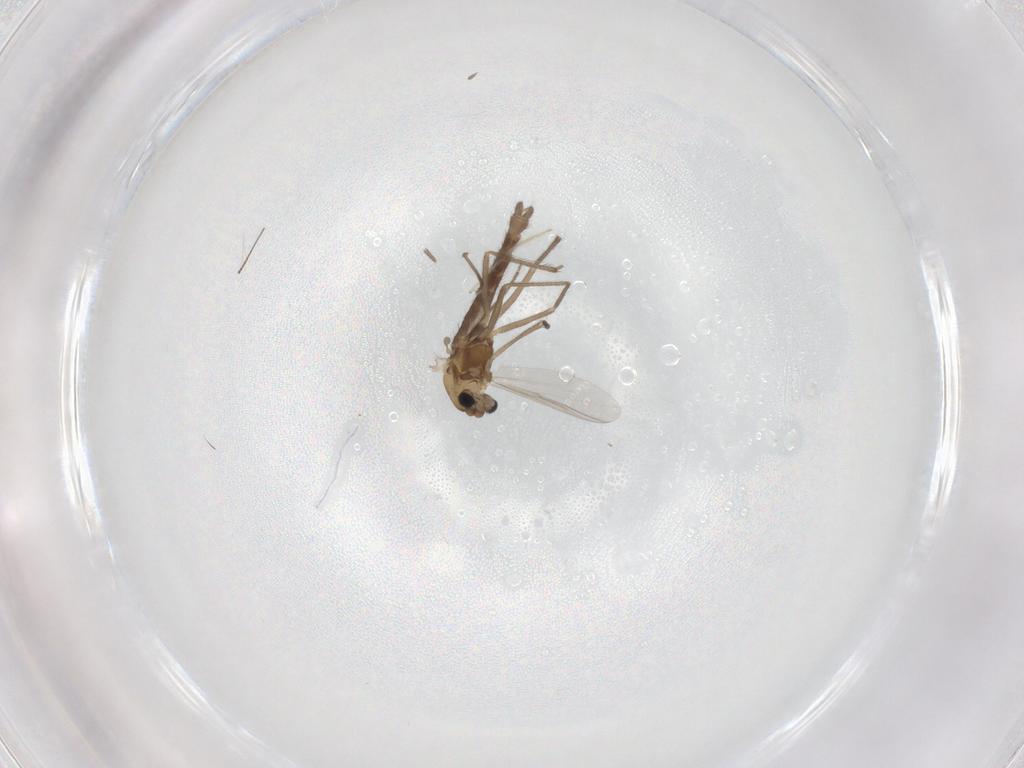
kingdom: Animalia
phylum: Arthropoda
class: Insecta
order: Diptera
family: Chironomidae
